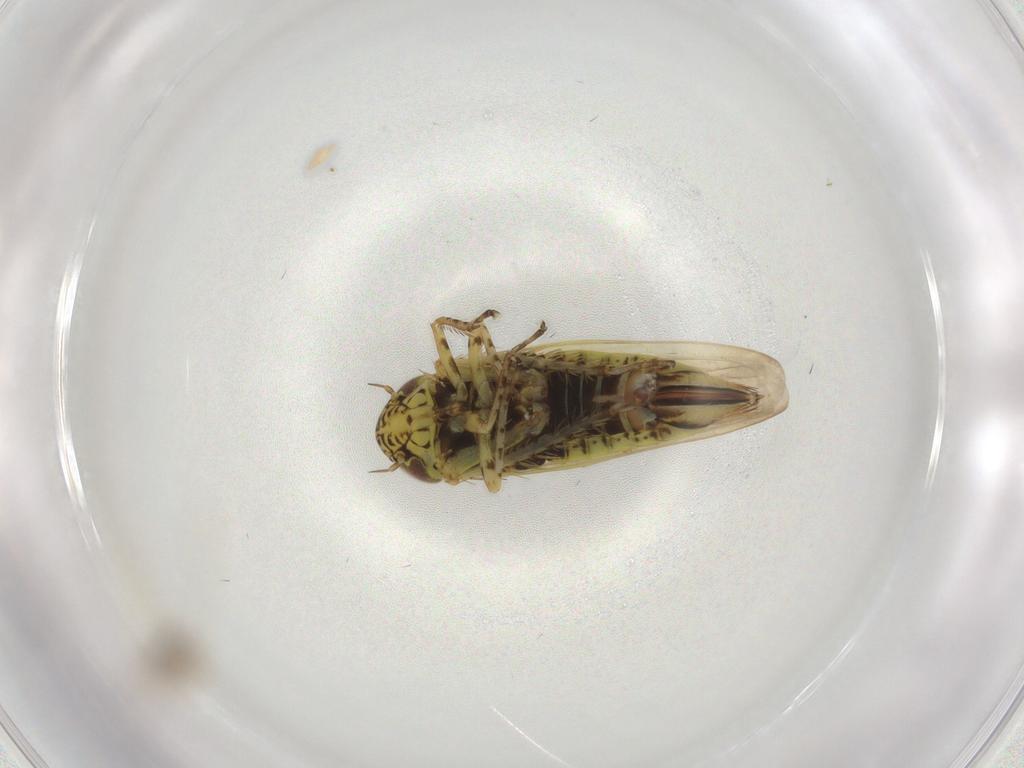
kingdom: Animalia
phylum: Arthropoda
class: Insecta
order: Hemiptera
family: Cicadellidae
